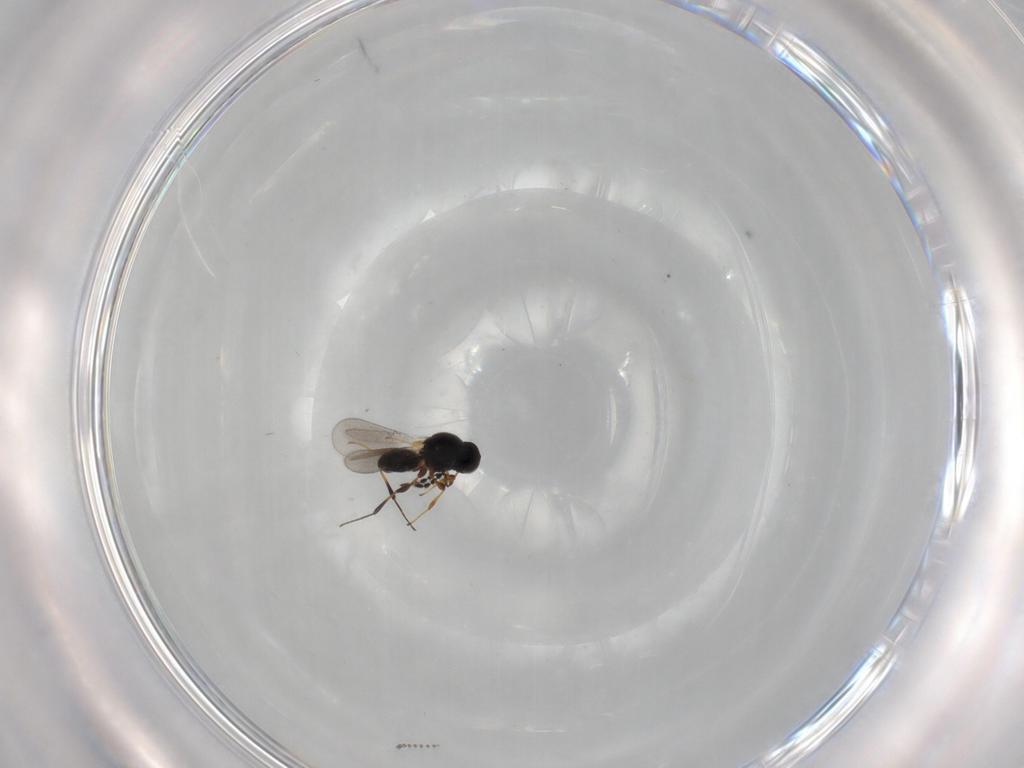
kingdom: Animalia
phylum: Arthropoda
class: Insecta
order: Hymenoptera
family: Platygastridae
